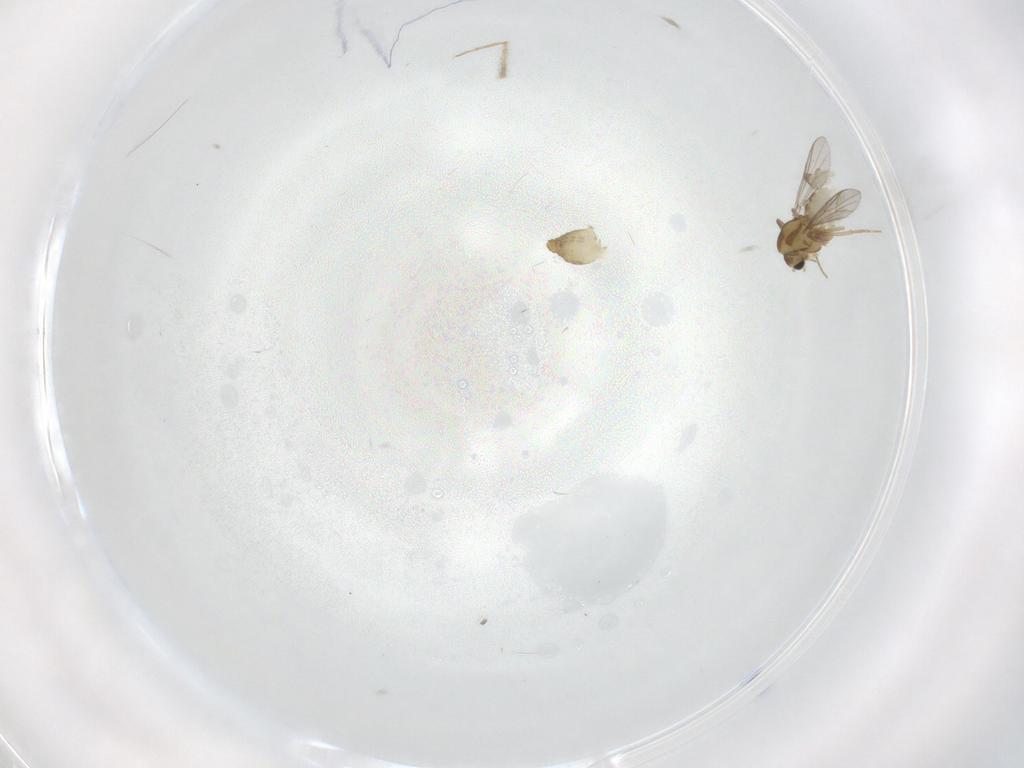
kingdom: Animalia
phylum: Arthropoda
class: Insecta
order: Diptera
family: Chironomidae
